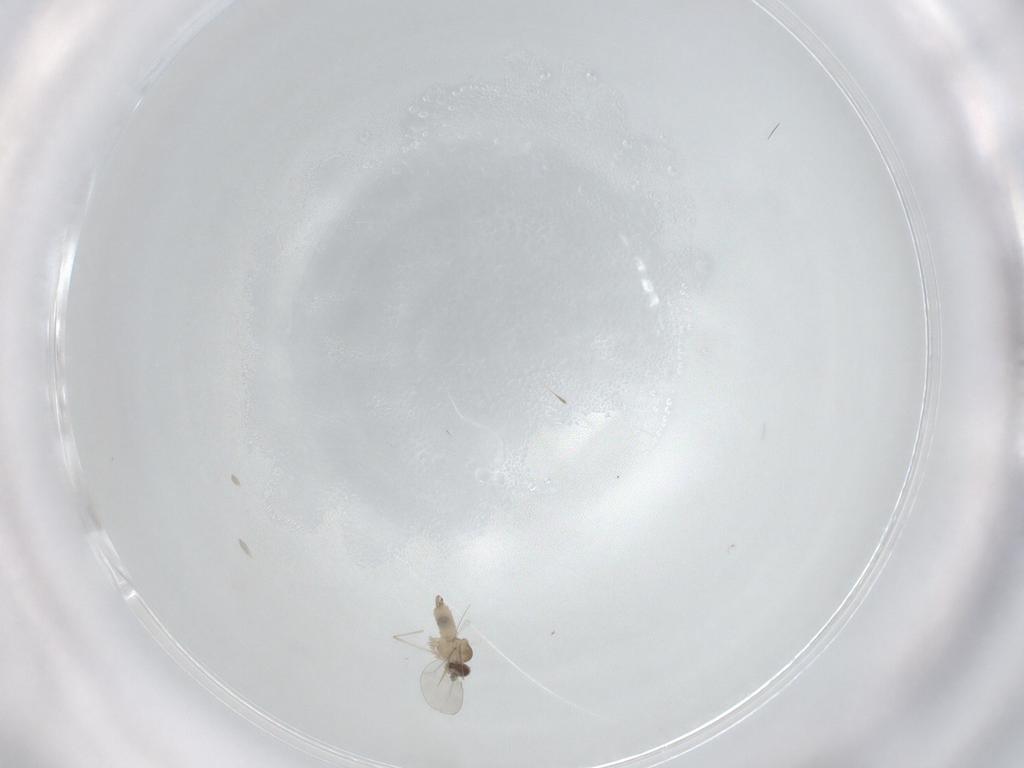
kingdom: Animalia
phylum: Arthropoda
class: Insecta
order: Diptera
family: Cecidomyiidae
